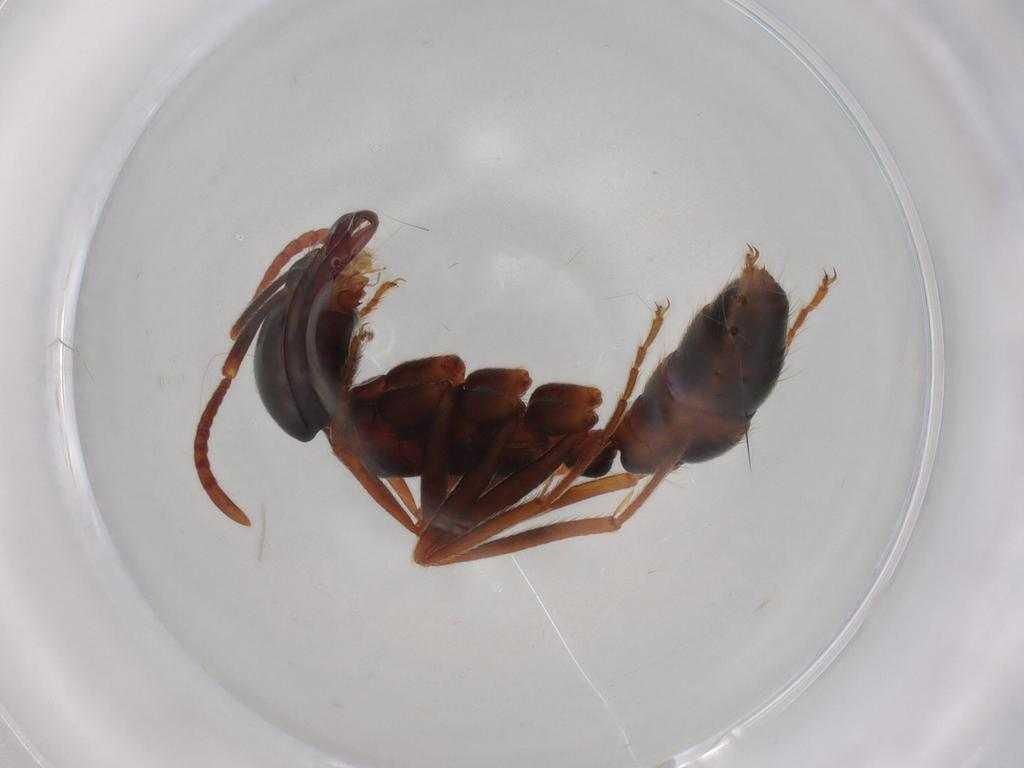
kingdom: Animalia
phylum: Arthropoda
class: Insecta
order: Hymenoptera
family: Formicidae
